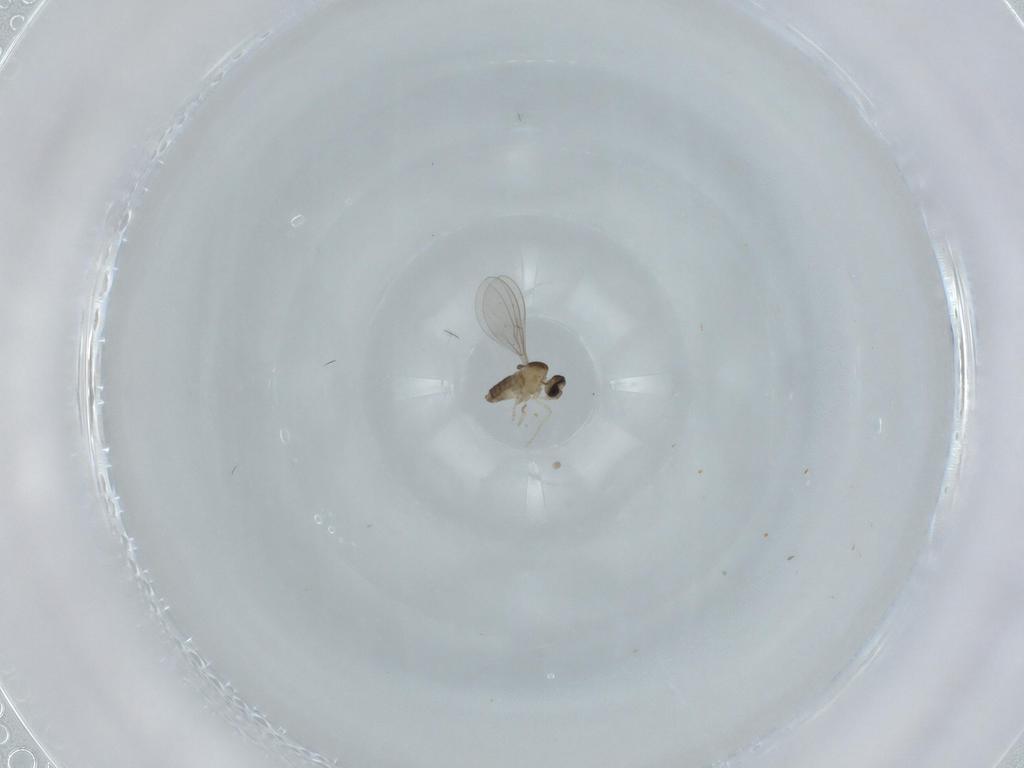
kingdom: Animalia
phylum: Arthropoda
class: Insecta
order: Diptera
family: Cecidomyiidae
